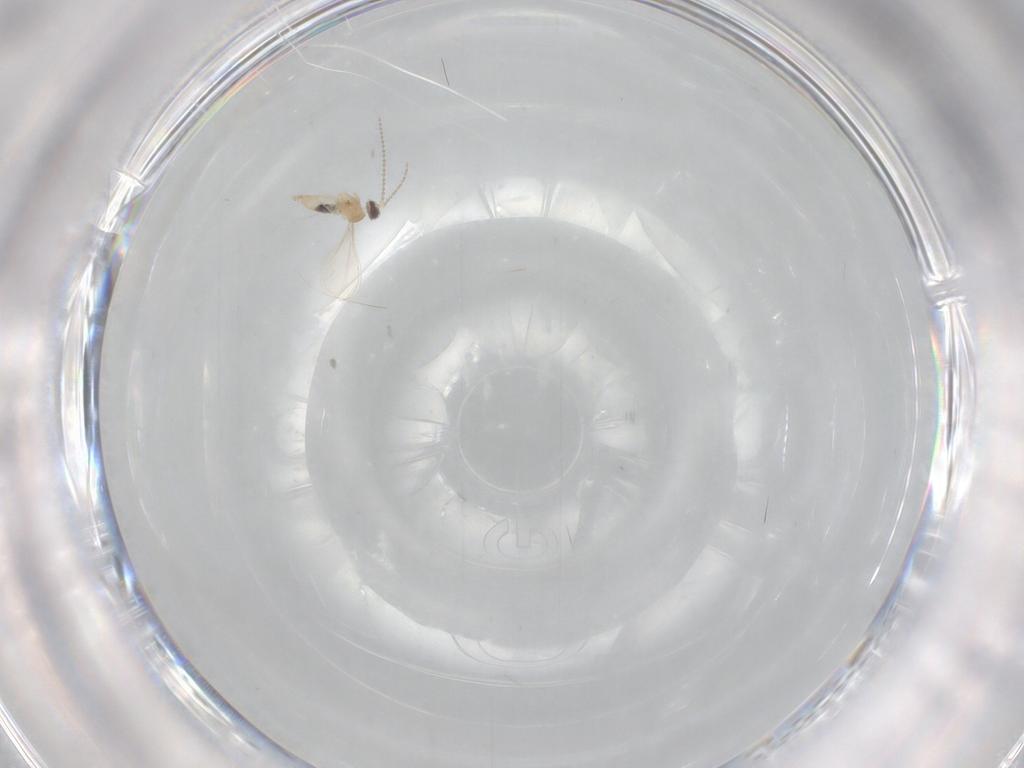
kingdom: Animalia
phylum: Arthropoda
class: Insecta
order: Diptera
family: Cecidomyiidae
